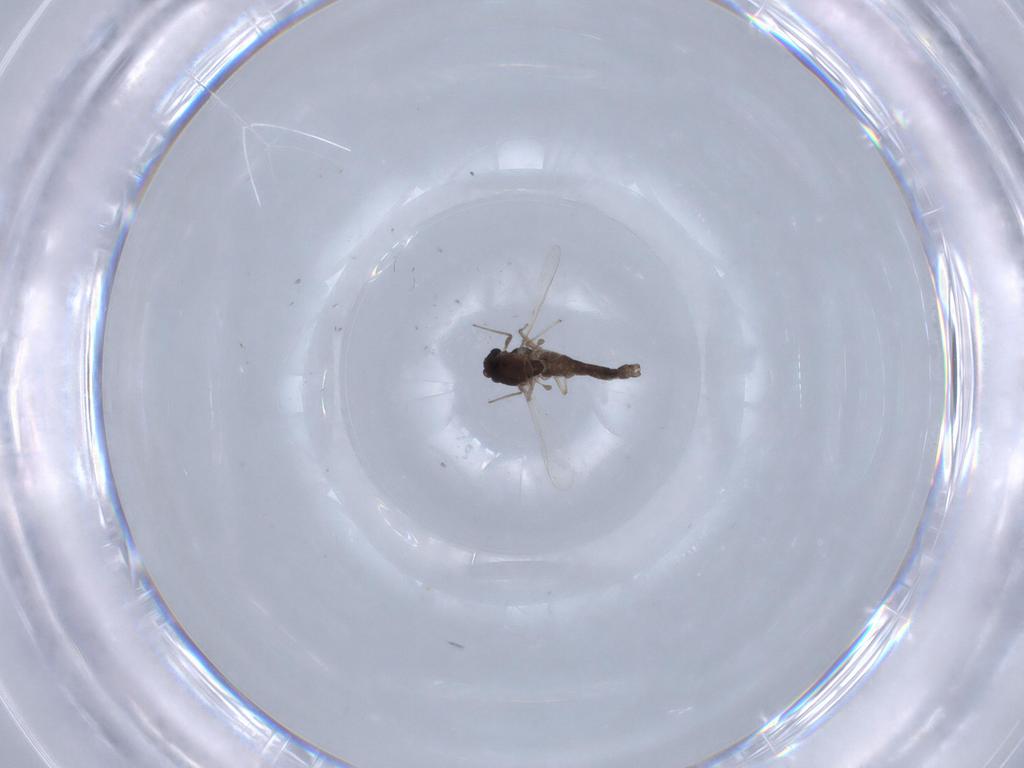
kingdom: Animalia
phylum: Arthropoda
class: Insecta
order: Diptera
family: Chironomidae
